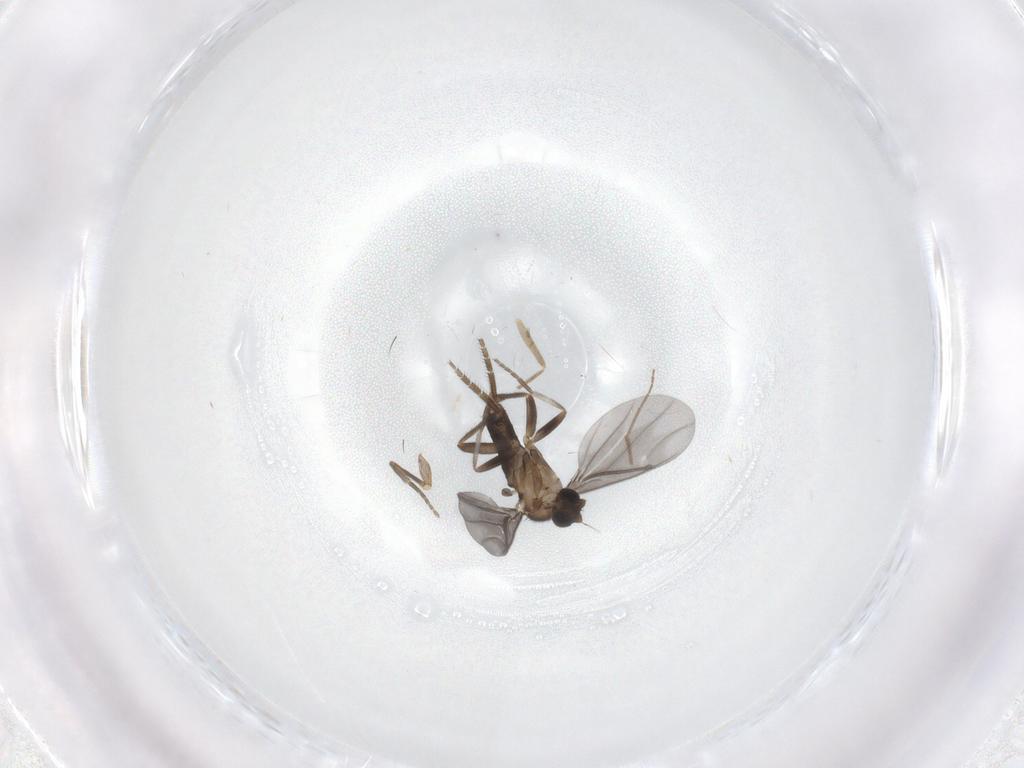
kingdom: Animalia
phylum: Arthropoda
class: Insecta
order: Diptera
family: Phoridae
